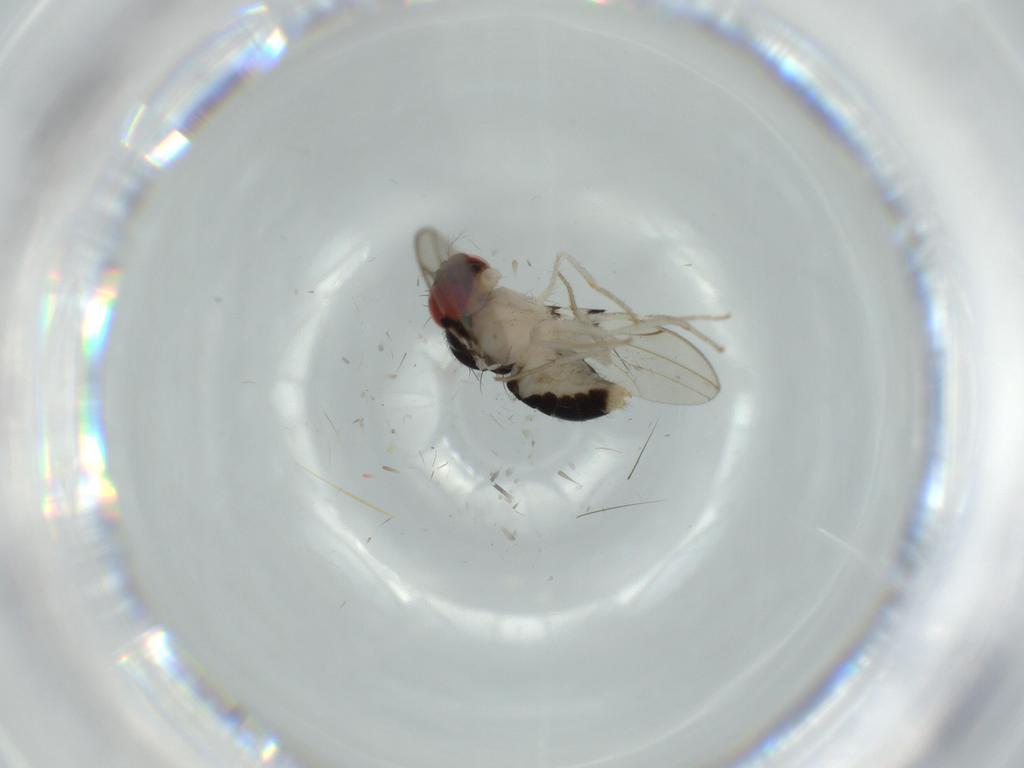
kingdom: Animalia
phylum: Arthropoda
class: Insecta
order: Diptera
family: Drosophilidae
